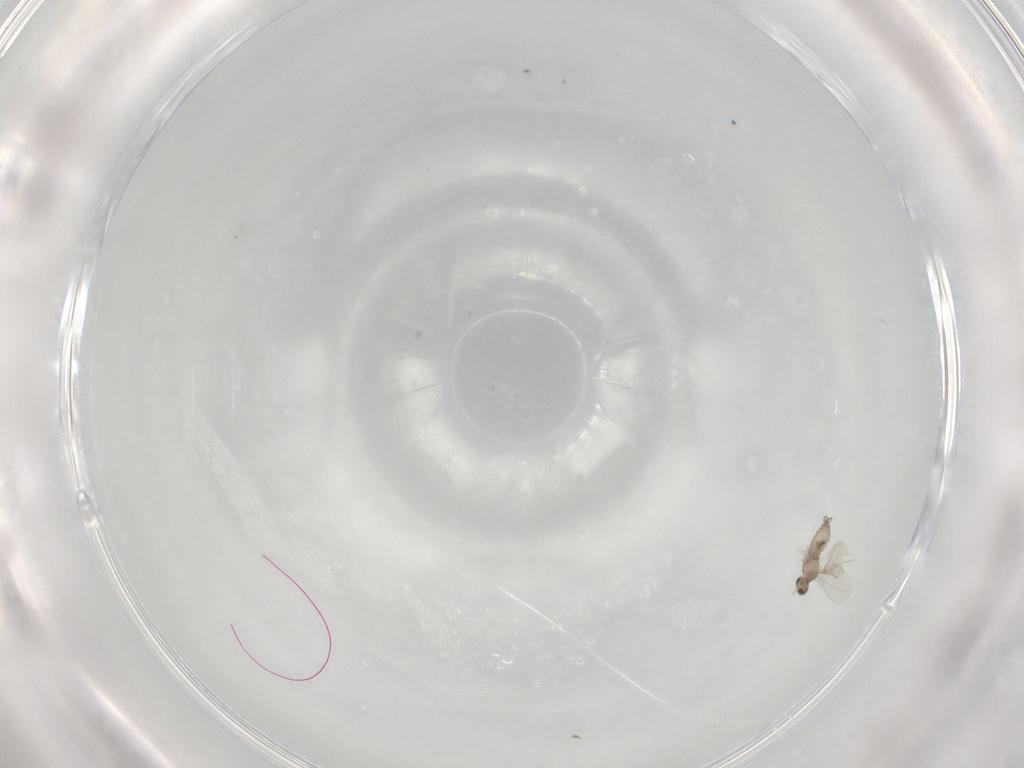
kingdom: Animalia
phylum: Arthropoda
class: Insecta
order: Diptera
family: Cecidomyiidae
